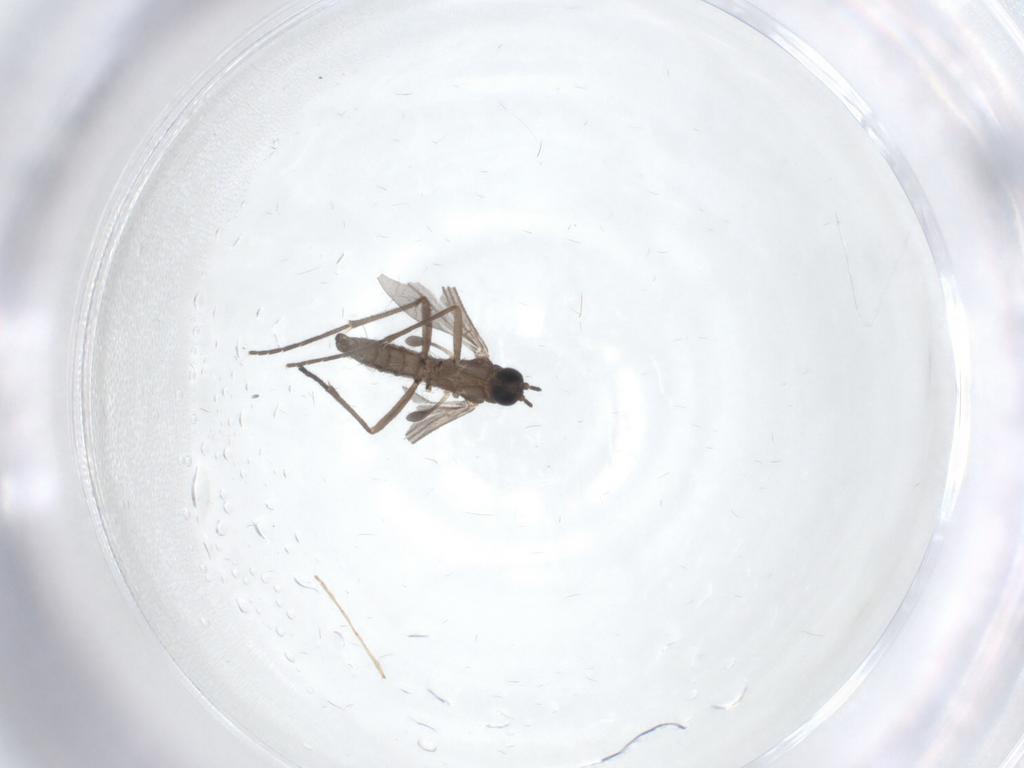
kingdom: Animalia
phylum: Arthropoda
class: Insecta
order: Diptera
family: Sciaridae
